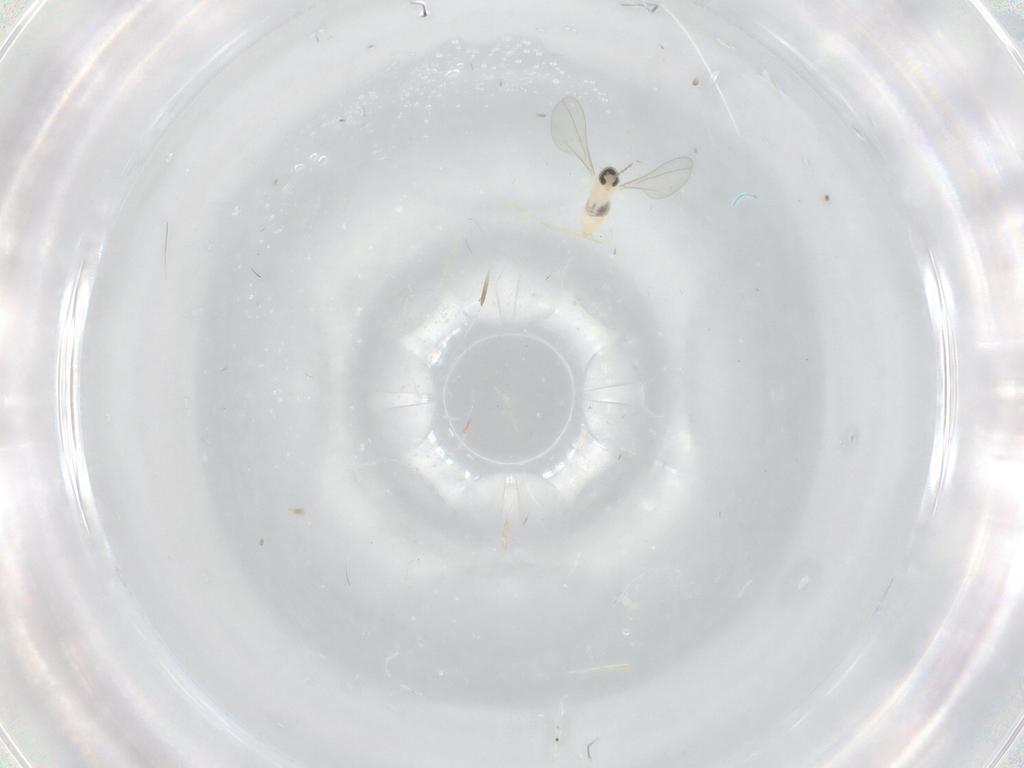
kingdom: Animalia
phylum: Arthropoda
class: Insecta
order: Diptera
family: Cecidomyiidae
